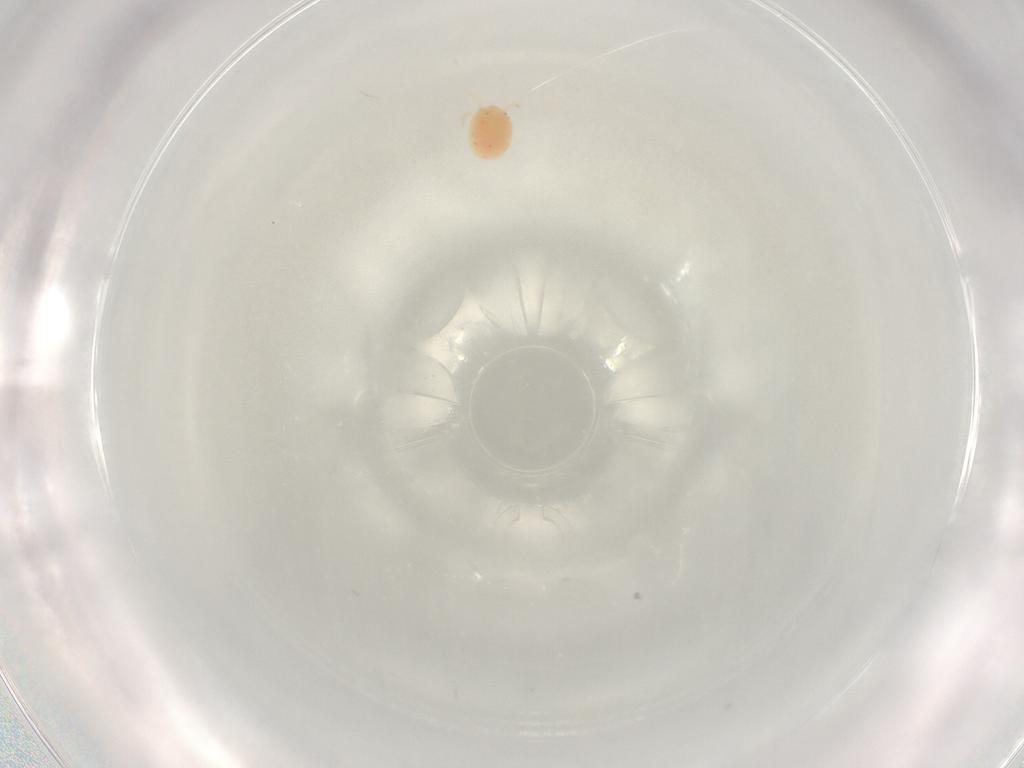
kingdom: Animalia
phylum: Arthropoda
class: Arachnida
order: Trombidiformes
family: Hydryphantidae
